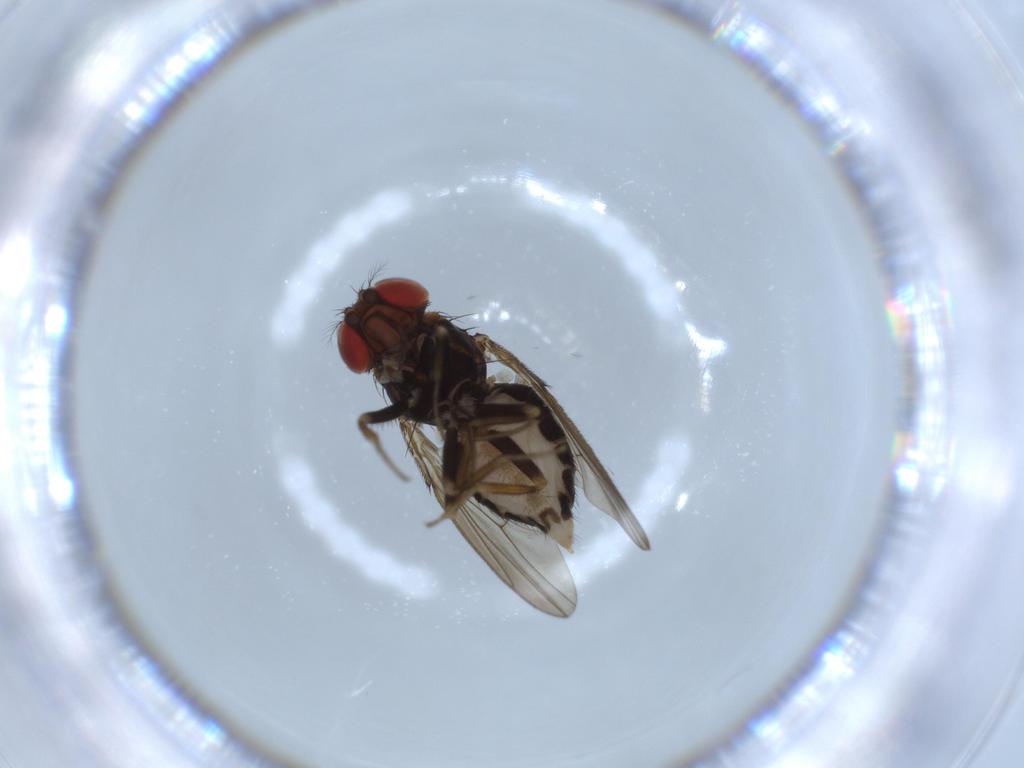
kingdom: Animalia
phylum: Arthropoda
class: Insecta
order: Diptera
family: Drosophilidae
